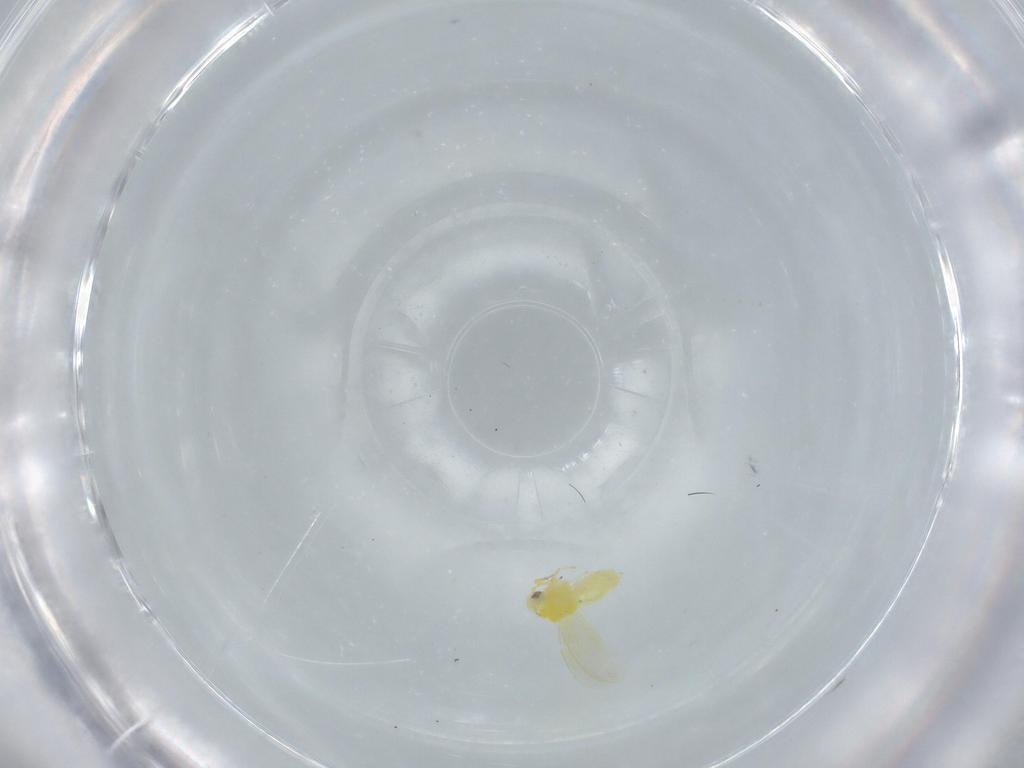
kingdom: Animalia
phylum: Arthropoda
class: Insecta
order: Hemiptera
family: Aleyrodidae
